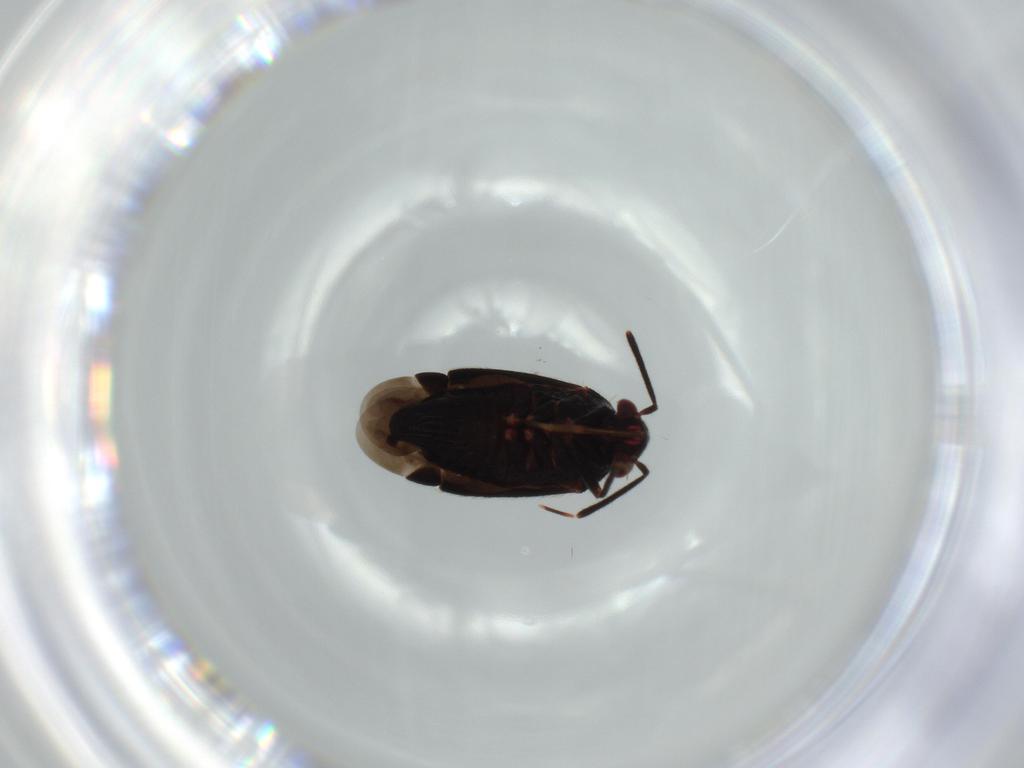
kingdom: Animalia
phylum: Arthropoda
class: Insecta
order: Hemiptera
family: Miridae
